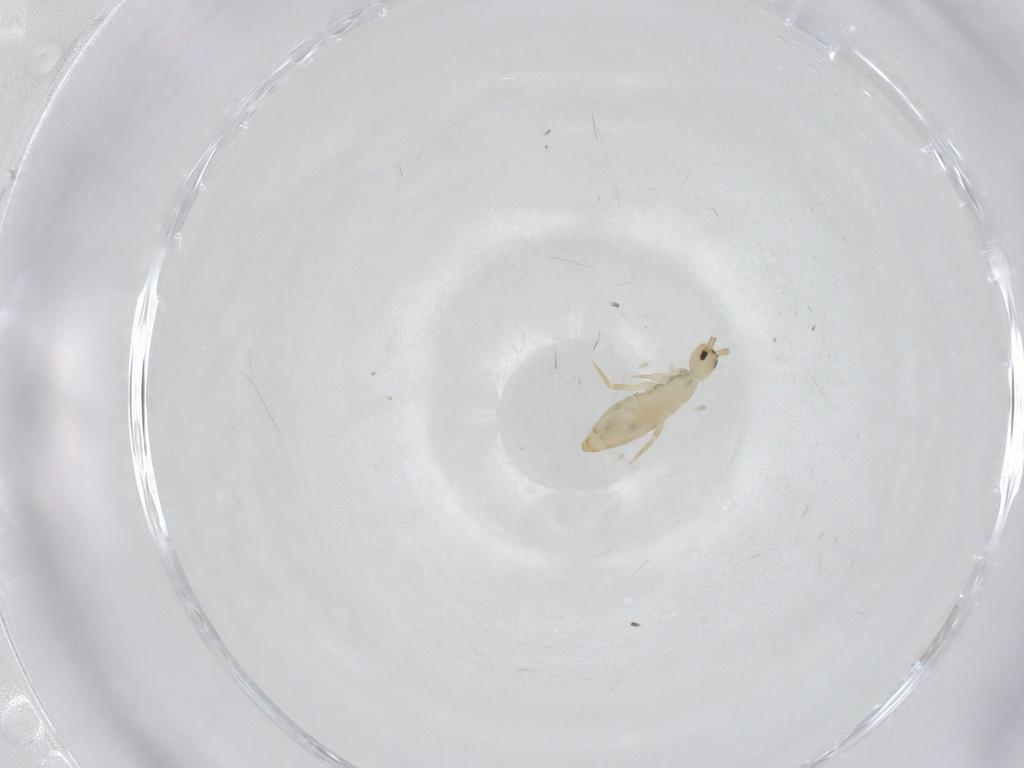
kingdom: Animalia
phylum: Arthropoda
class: Collembola
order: Entomobryomorpha
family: Entomobryidae
